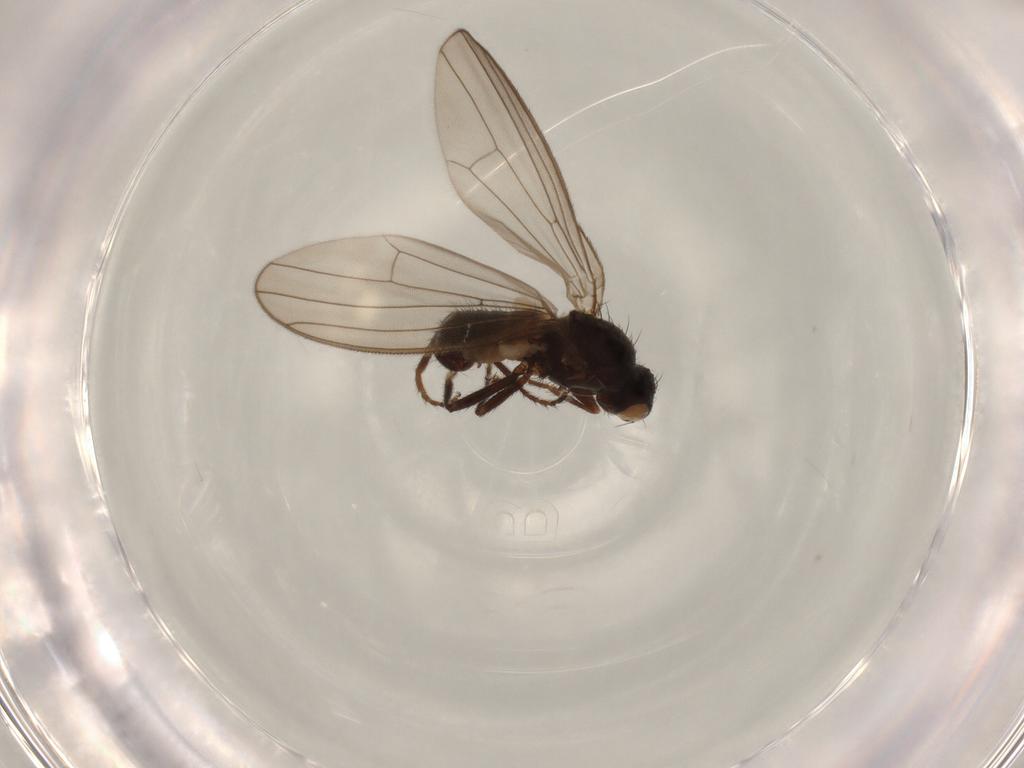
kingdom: Animalia
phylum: Arthropoda
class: Insecta
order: Diptera
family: Heleomyzidae
